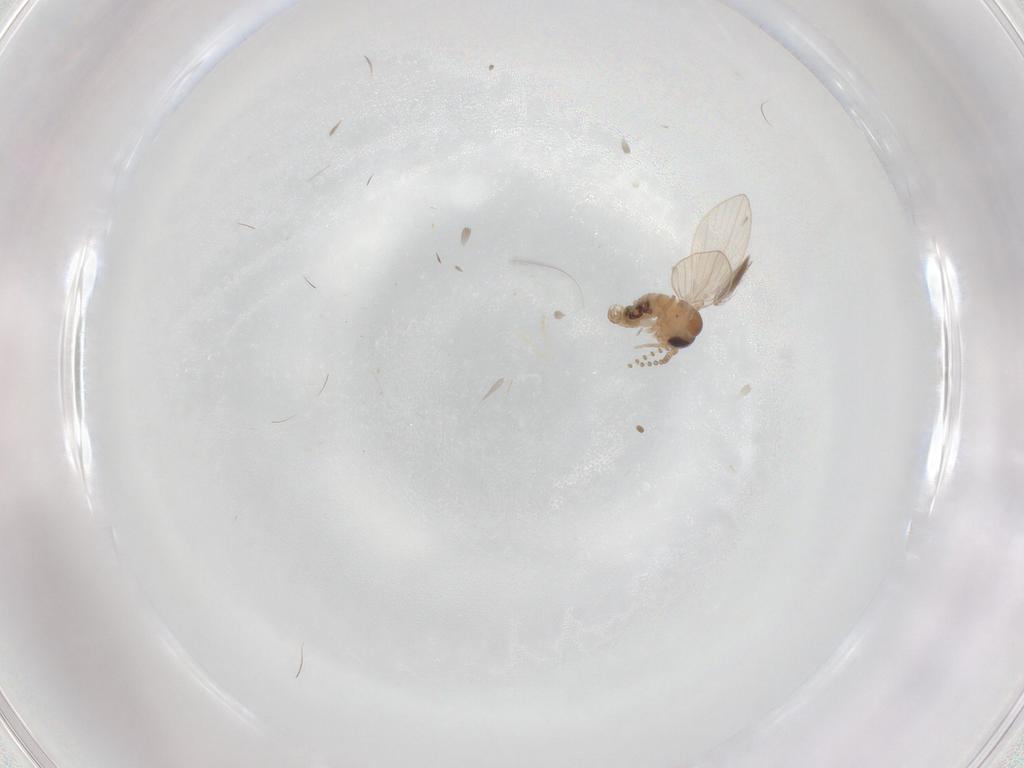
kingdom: Animalia
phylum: Arthropoda
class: Insecta
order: Diptera
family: Psychodidae
